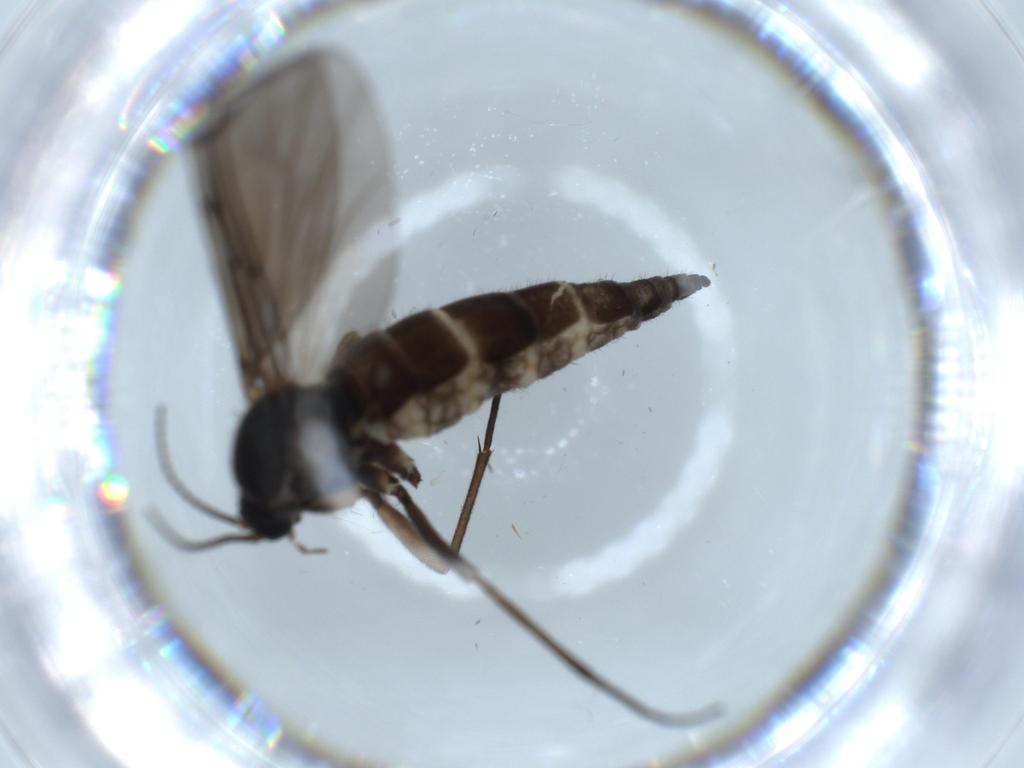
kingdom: Animalia
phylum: Arthropoda
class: Insecta
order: Diptera
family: Sciaridae
